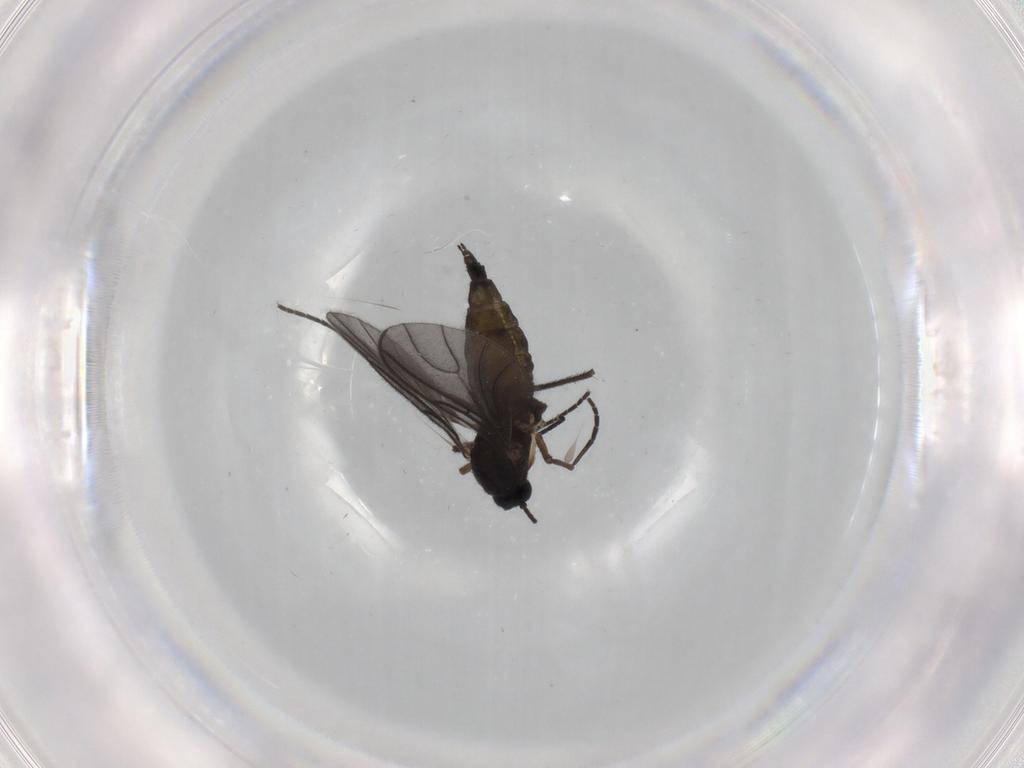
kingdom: Animalia
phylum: Arthropoda
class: Insecta
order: Diptera
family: Sciaridae
